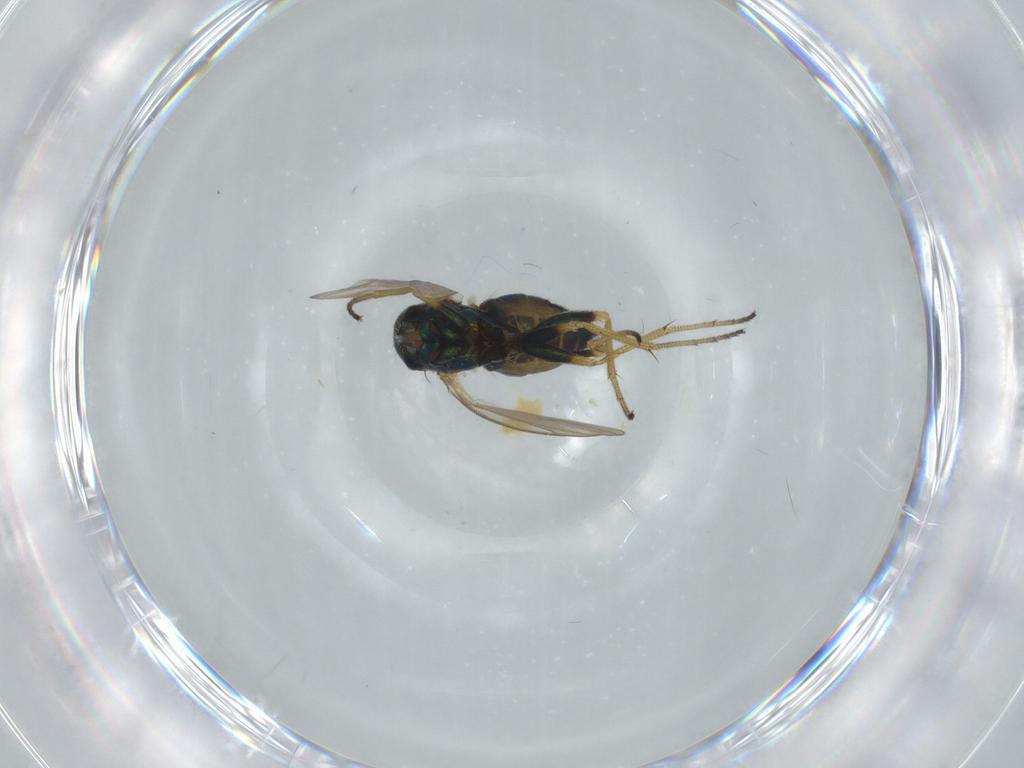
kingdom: Animalia
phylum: Arthropoda
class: Insecta
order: Diptera
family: Dolichopodidae
